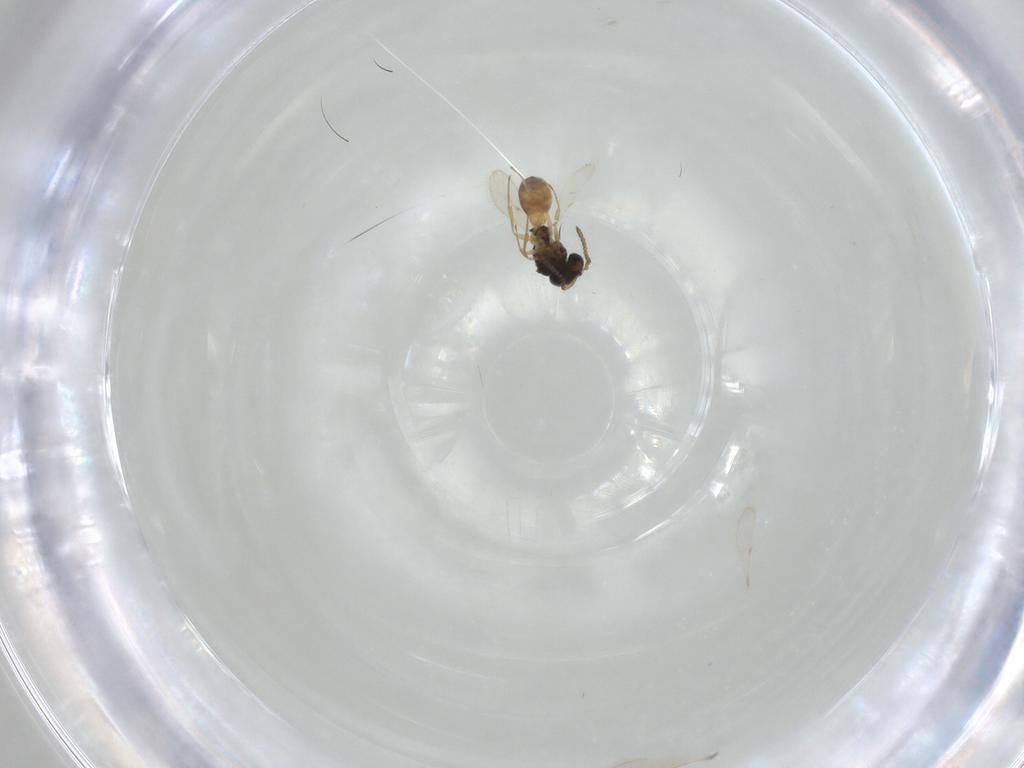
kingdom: Animalia
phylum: Arthropoda
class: Insecta
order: Hymenoptera
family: Scelionidae
